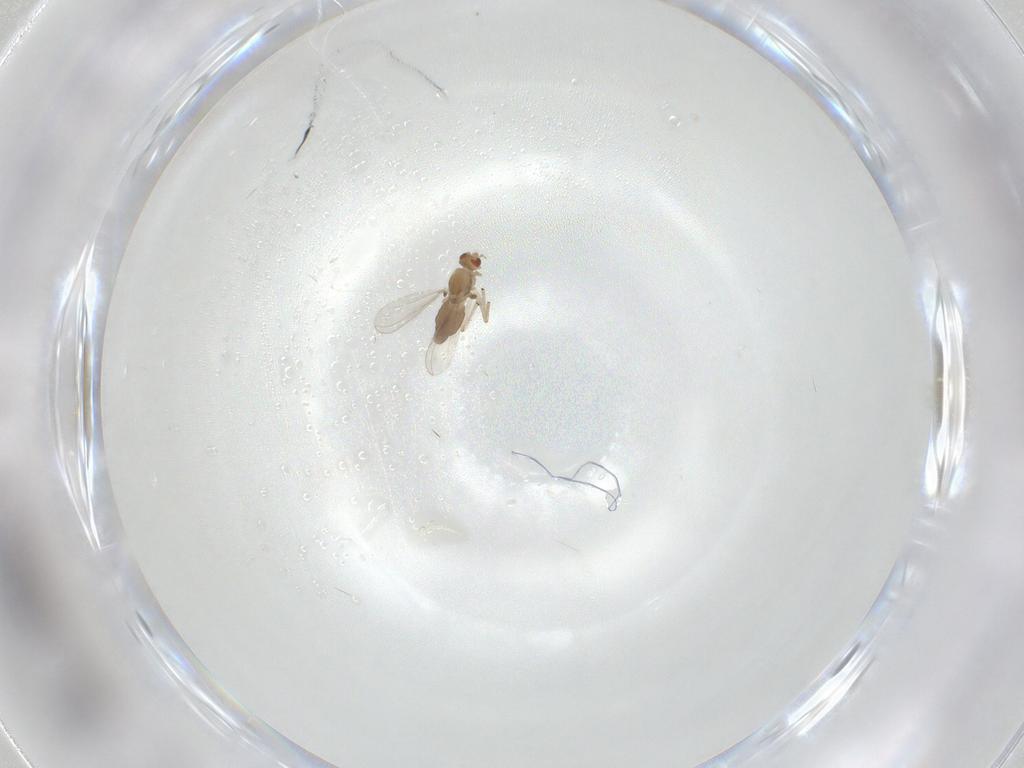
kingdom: Animalia
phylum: Arthropoda
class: Insecta
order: Diptera
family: Chironomidae
